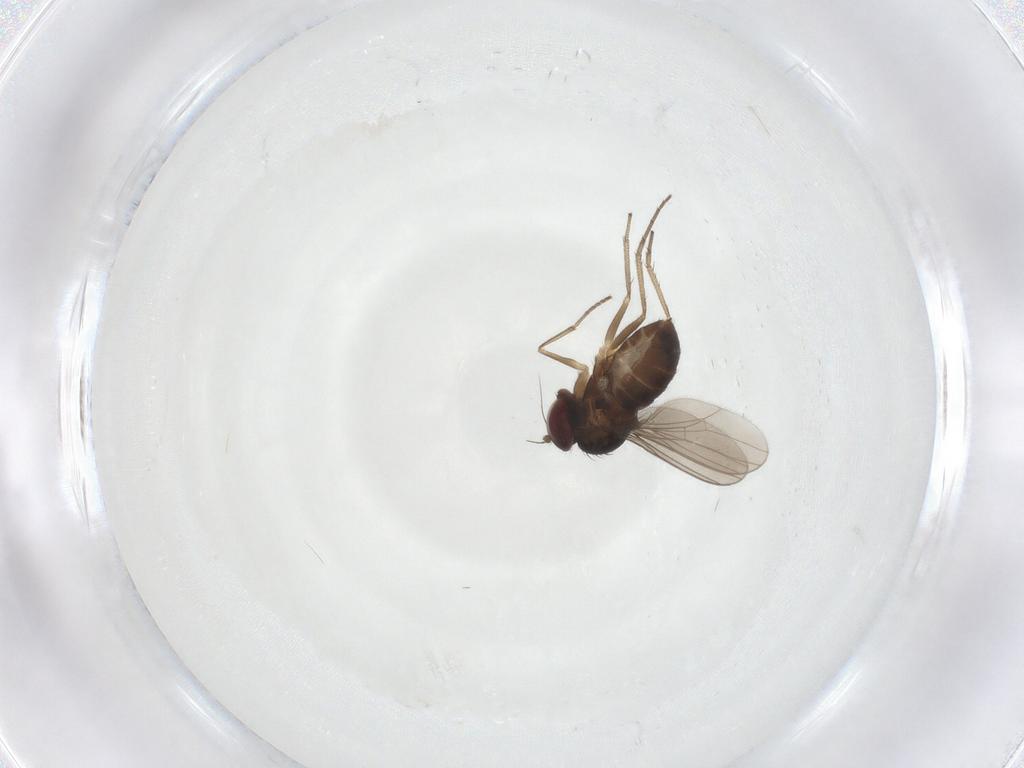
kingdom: Animalia
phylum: Arthropoda
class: Insecta
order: Diptera
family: Dolichopodidae
